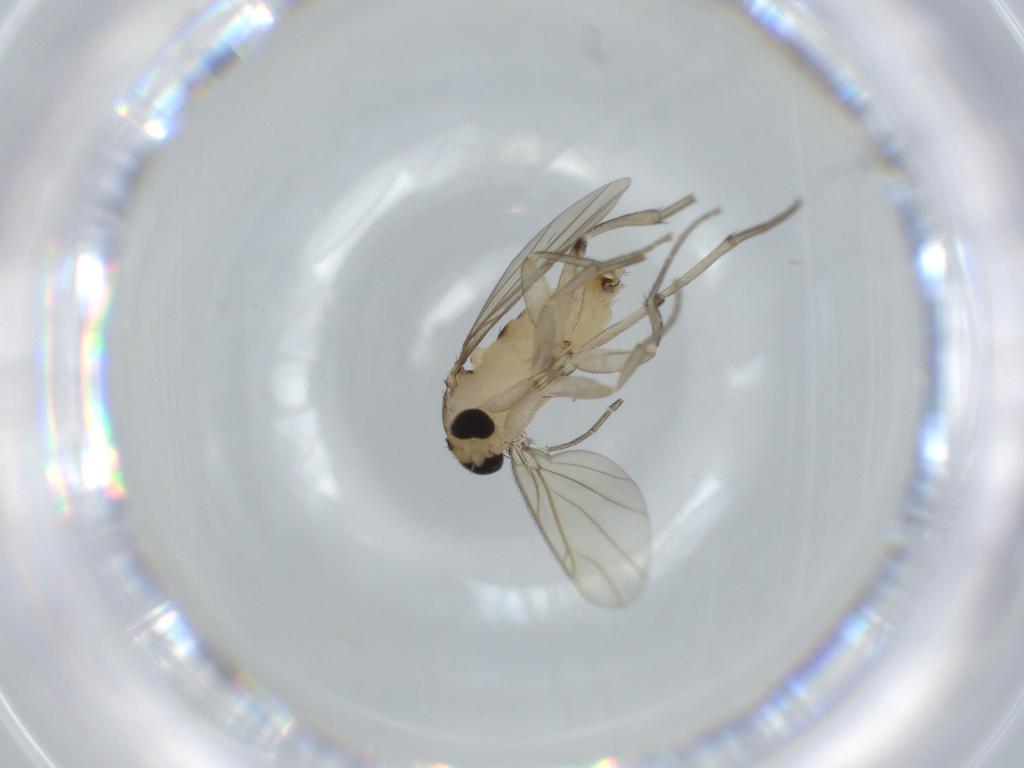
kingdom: Animalia
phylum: Arthropoda
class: Insecta
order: Diptera
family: Phoridae
